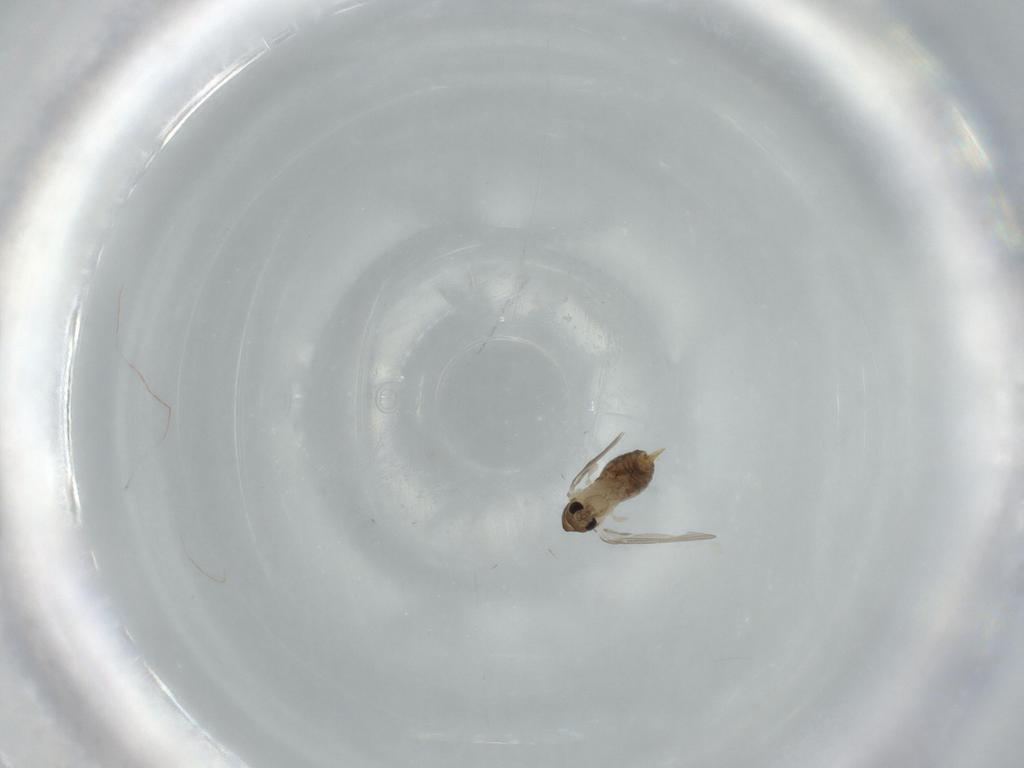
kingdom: Animalia
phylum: Arthropoda
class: Insecta
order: Diptera
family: Psychodidae
